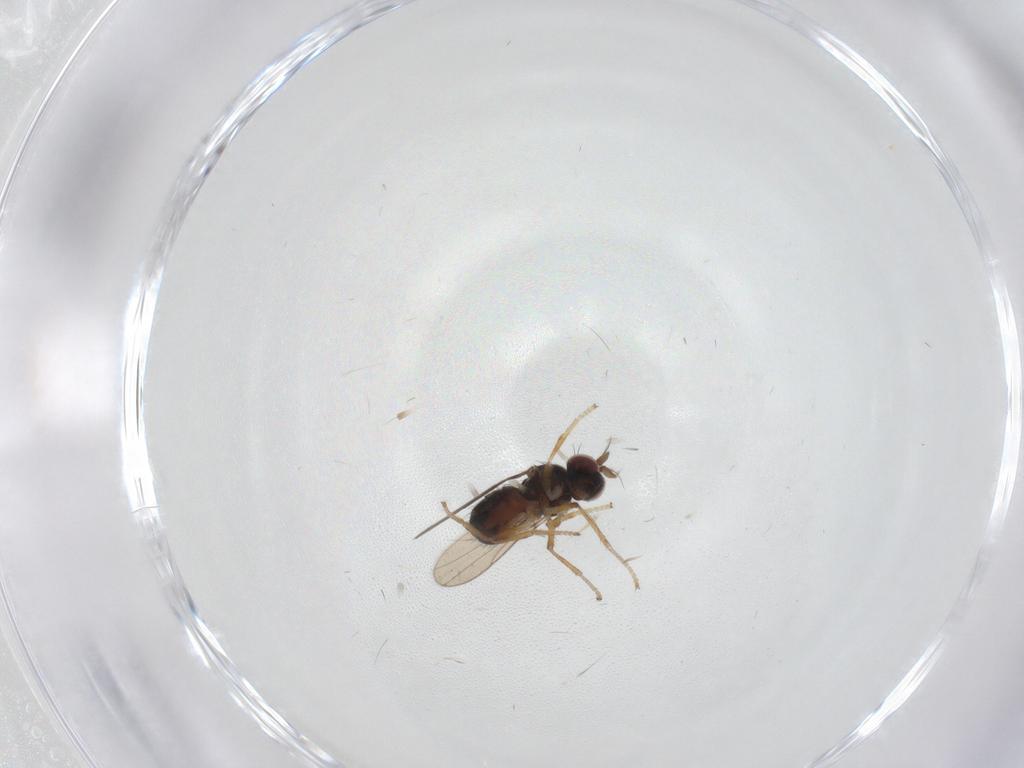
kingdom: Animalia
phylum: Arthropoda
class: Insecta
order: Diptera
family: Ephydridae
